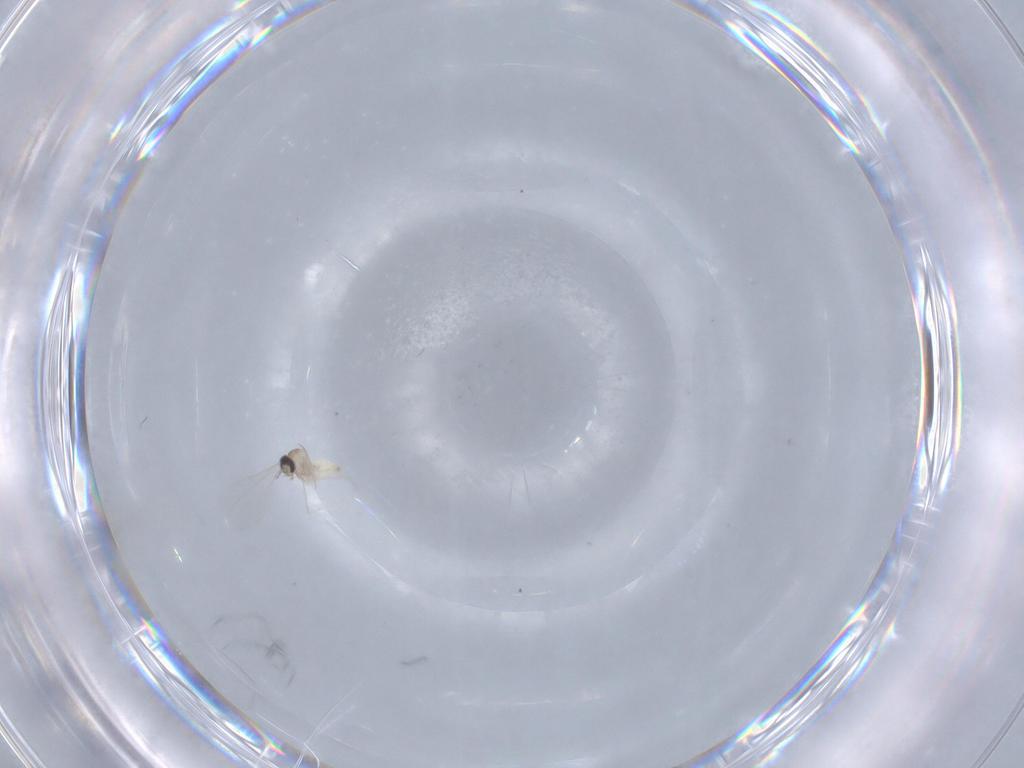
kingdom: Animalia
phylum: Arthropoda
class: Insecta
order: Diptera
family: Cecidomyiidae
